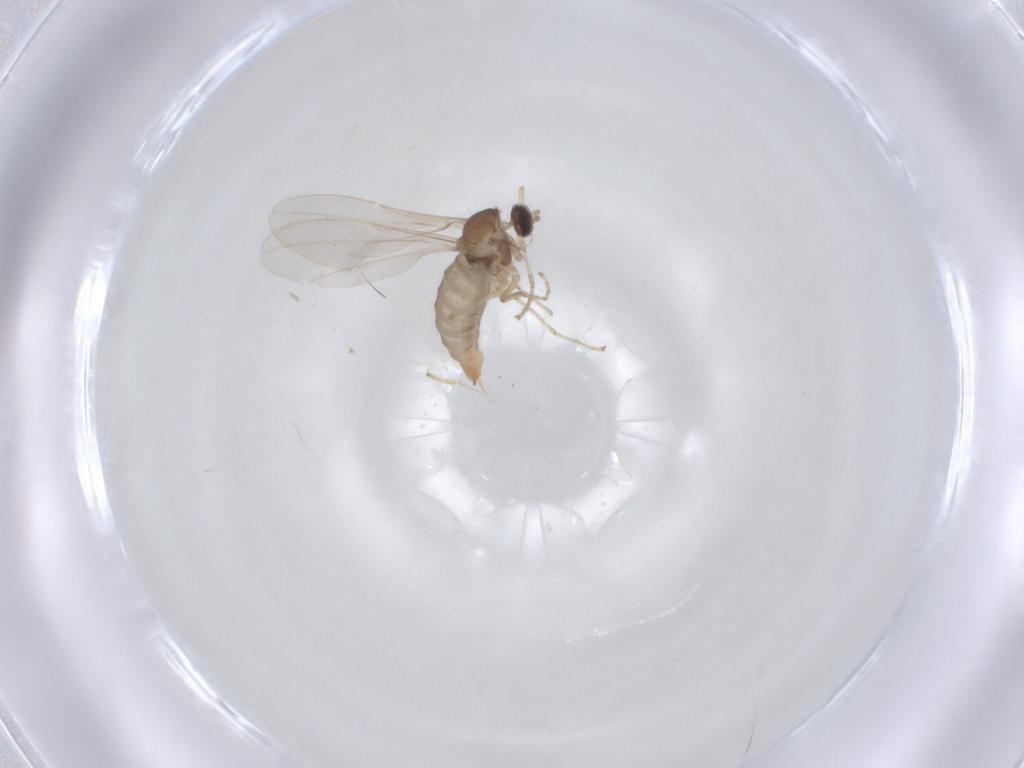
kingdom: Animalia
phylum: Arthropoda
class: Insecta
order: Diptera
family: Cecidomyiidae
